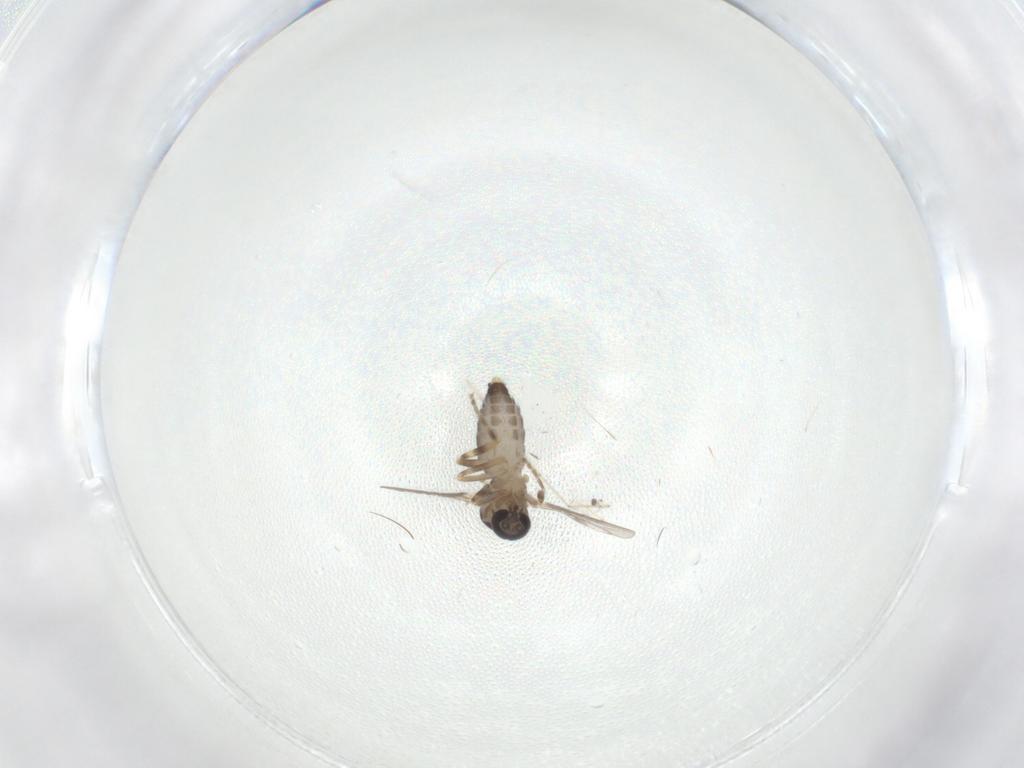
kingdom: Animalia
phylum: Arthropoda
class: Insecta
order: Diptera
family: Ceratopogonidae
